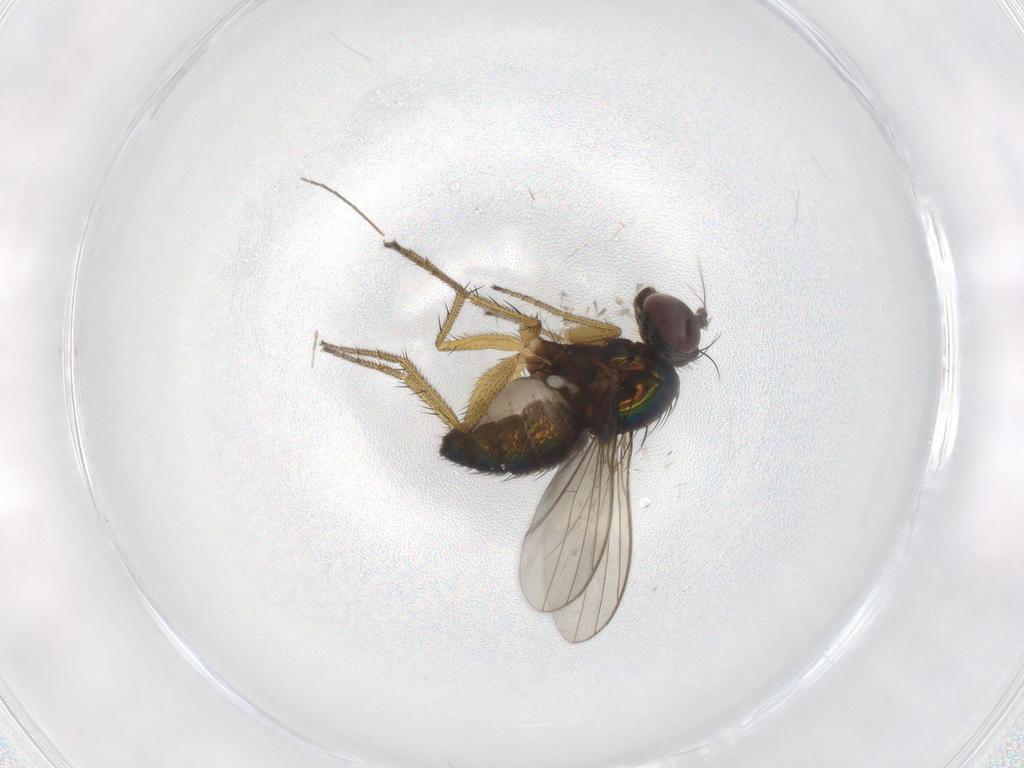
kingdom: Animalia
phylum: Arthropoda
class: Insecta
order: Diptera
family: Dolichopodidae
